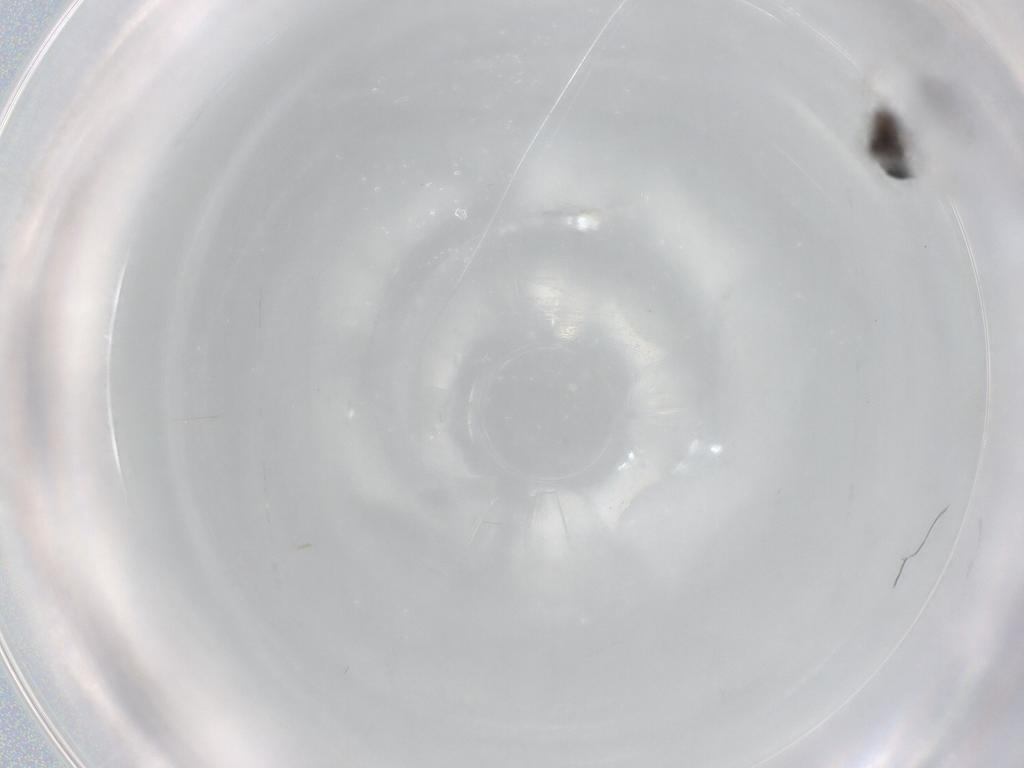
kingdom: Animalia
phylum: Arthropoda
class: Insecta
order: Hymenoptera
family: Eulophidae
